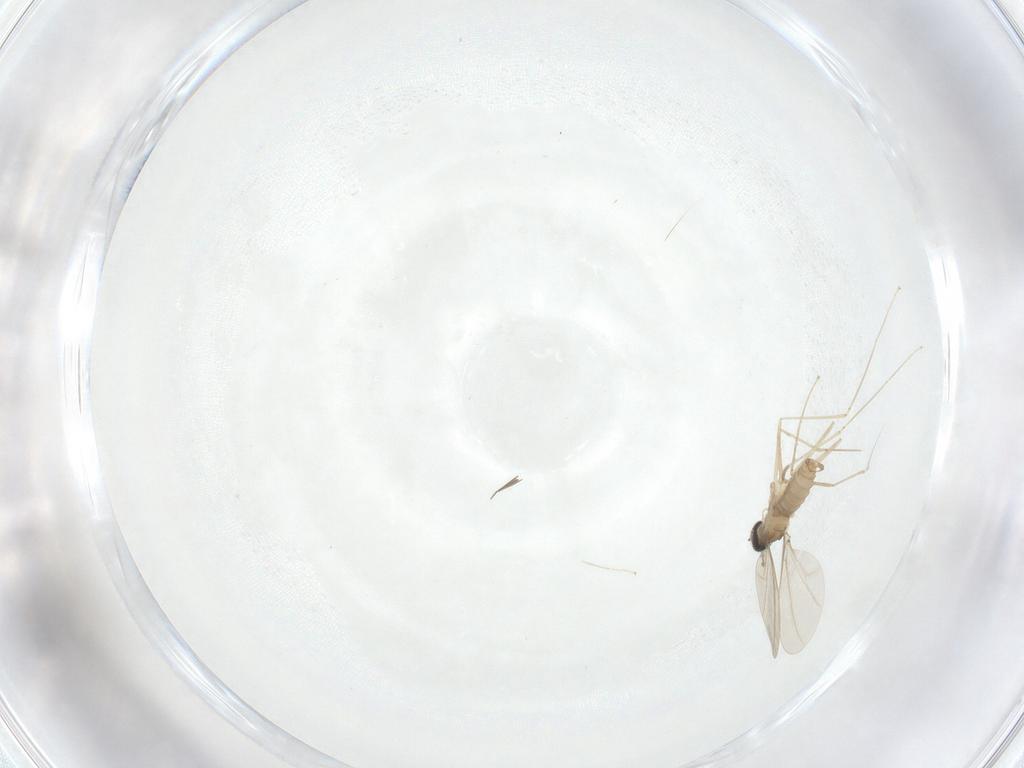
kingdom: Animalia
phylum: Arthropoda
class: Insecta
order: Diptera
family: Cecidomyiidae
